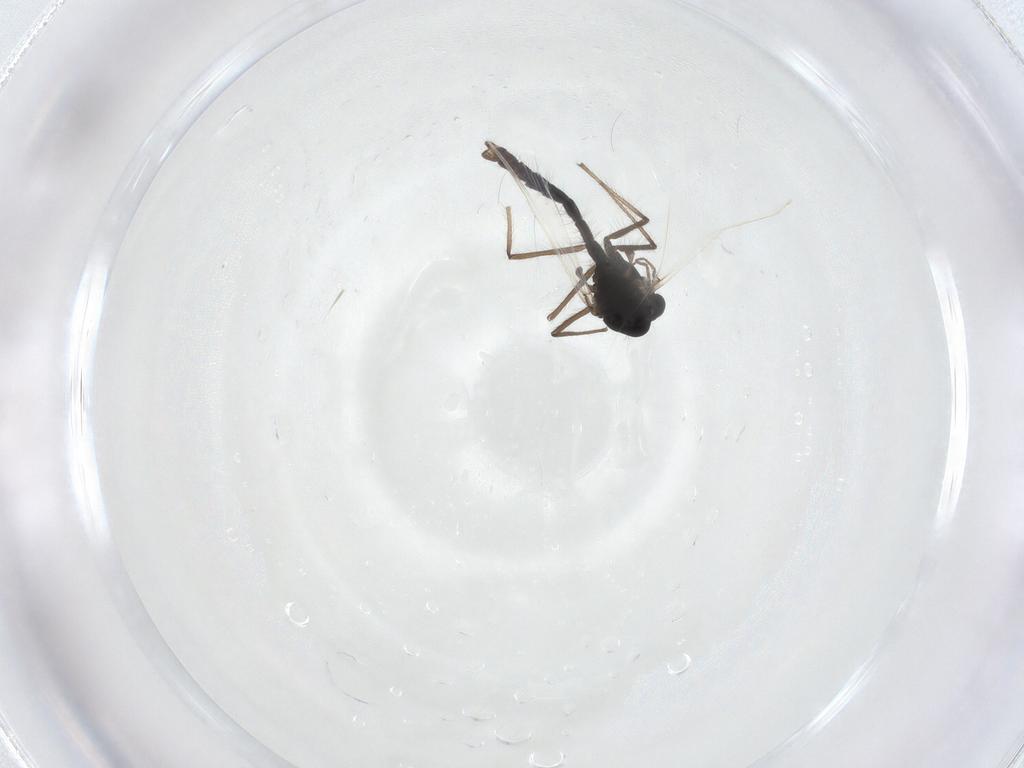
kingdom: Animalia
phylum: Arthropoda
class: Insecta
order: Diptera
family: Chironomidae
